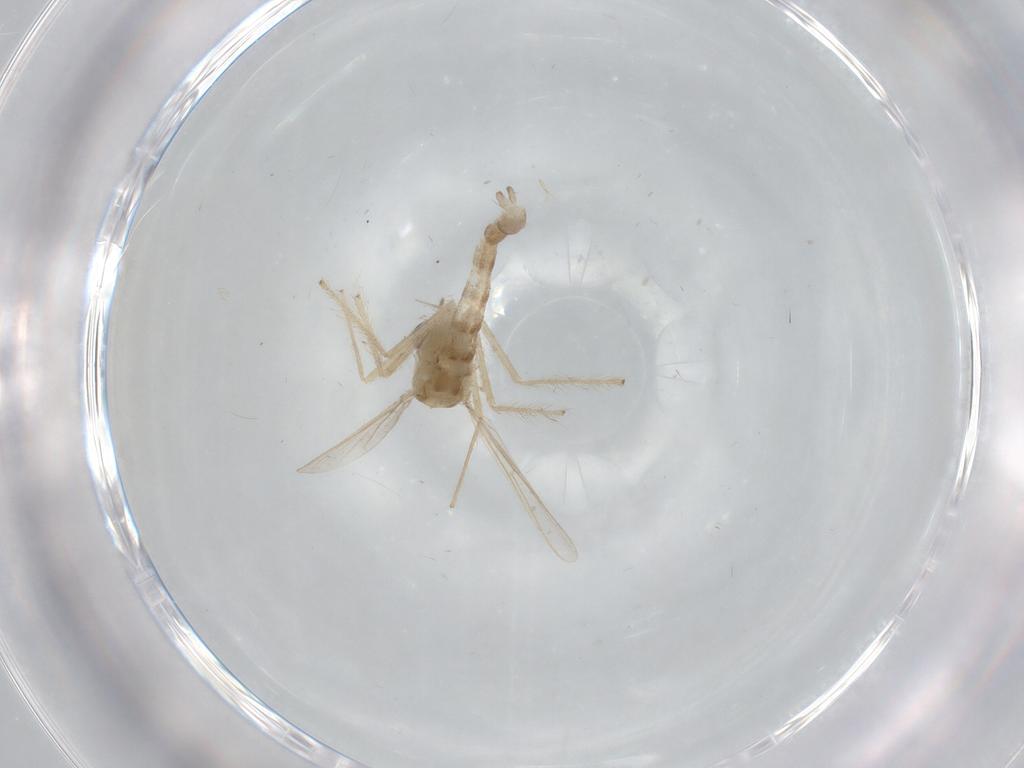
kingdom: Animalia
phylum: Arthropoda
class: Insecta
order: Diptera
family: Chironomidae
